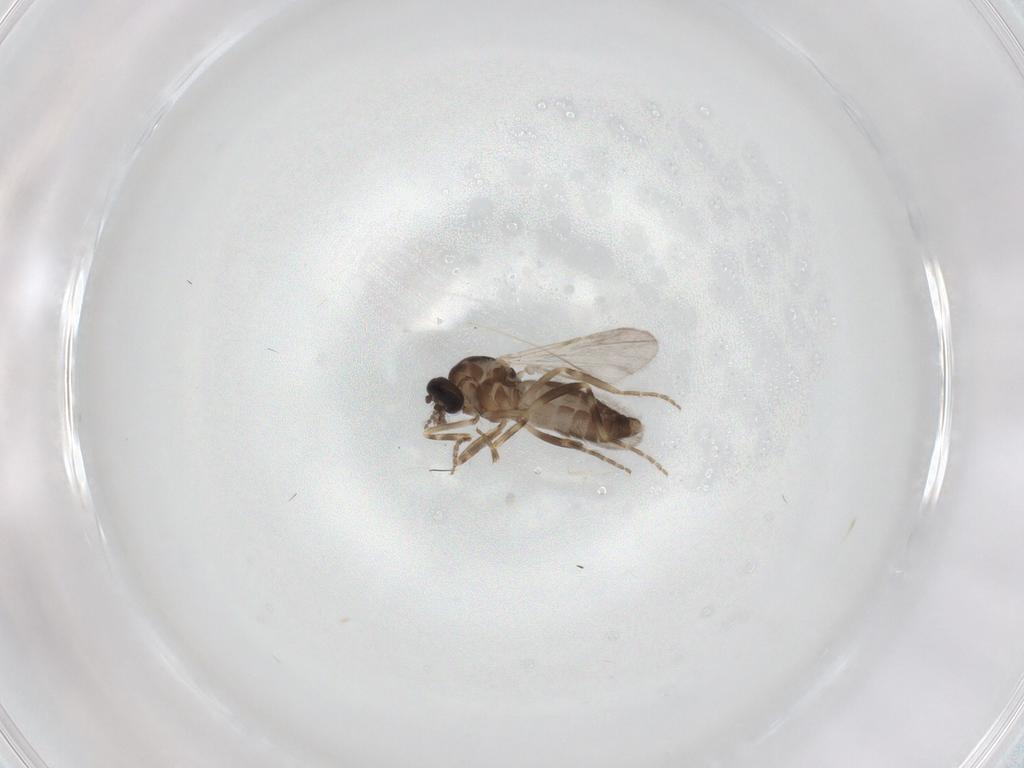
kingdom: Animalia
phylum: Arthropoda
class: Insecta
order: Diptera
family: Ceratopogonidae
